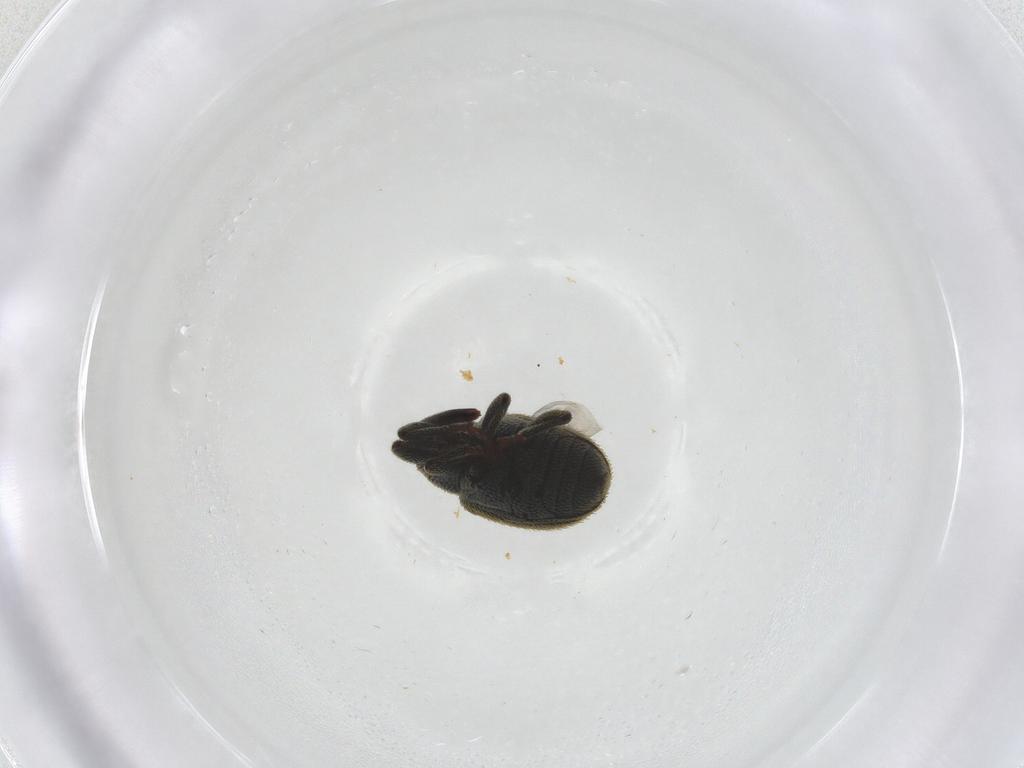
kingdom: Animalia
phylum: Arthropoda
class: Insecta
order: Coleoptera
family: Curculionidae
